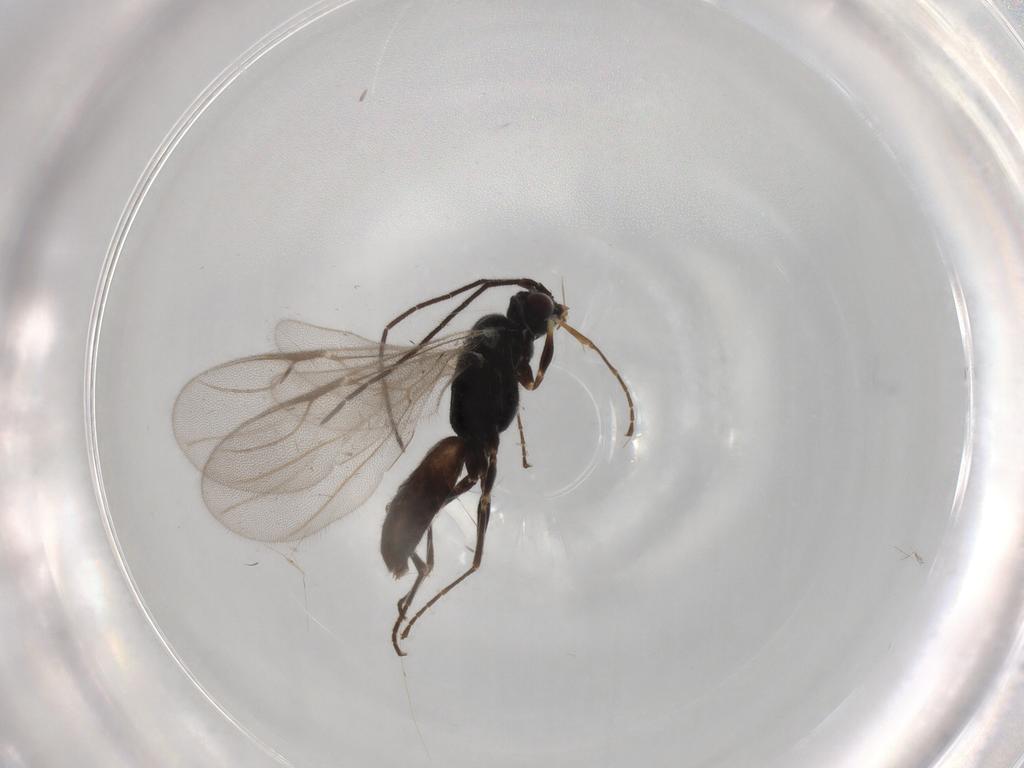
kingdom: Animalia
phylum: Arthropoda
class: Insecta
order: Hymenoptera
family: Dryinidae
